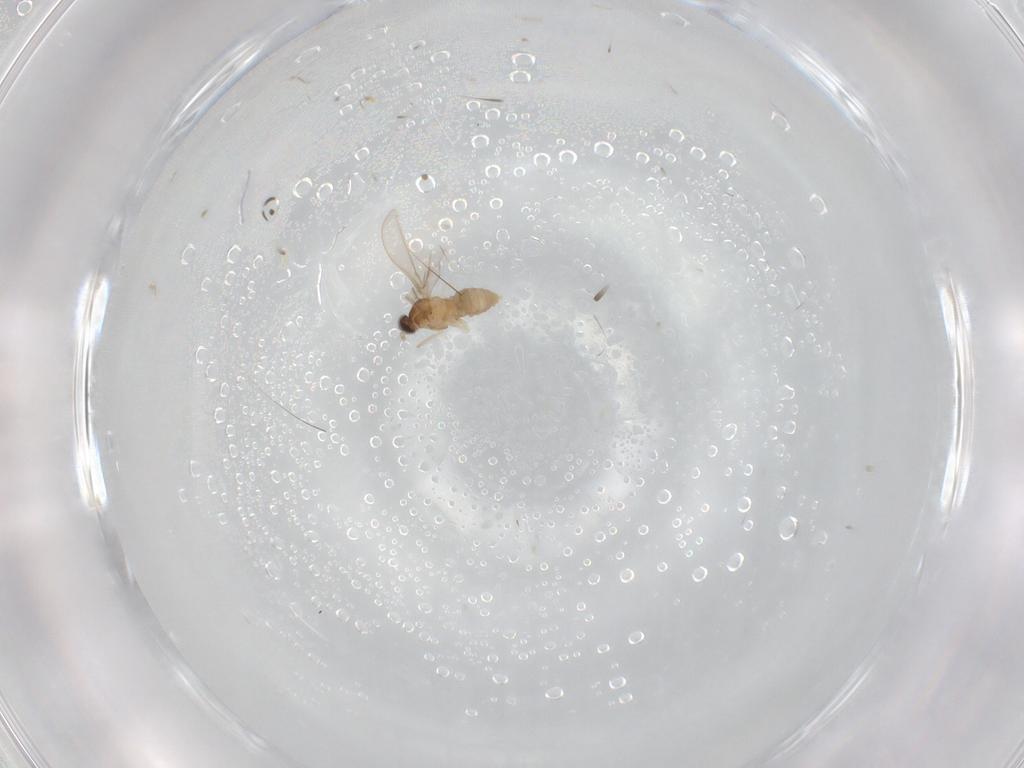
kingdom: Animalia
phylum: Arthropoda
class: Insecta
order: Diptera
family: Cecidomyiidae
